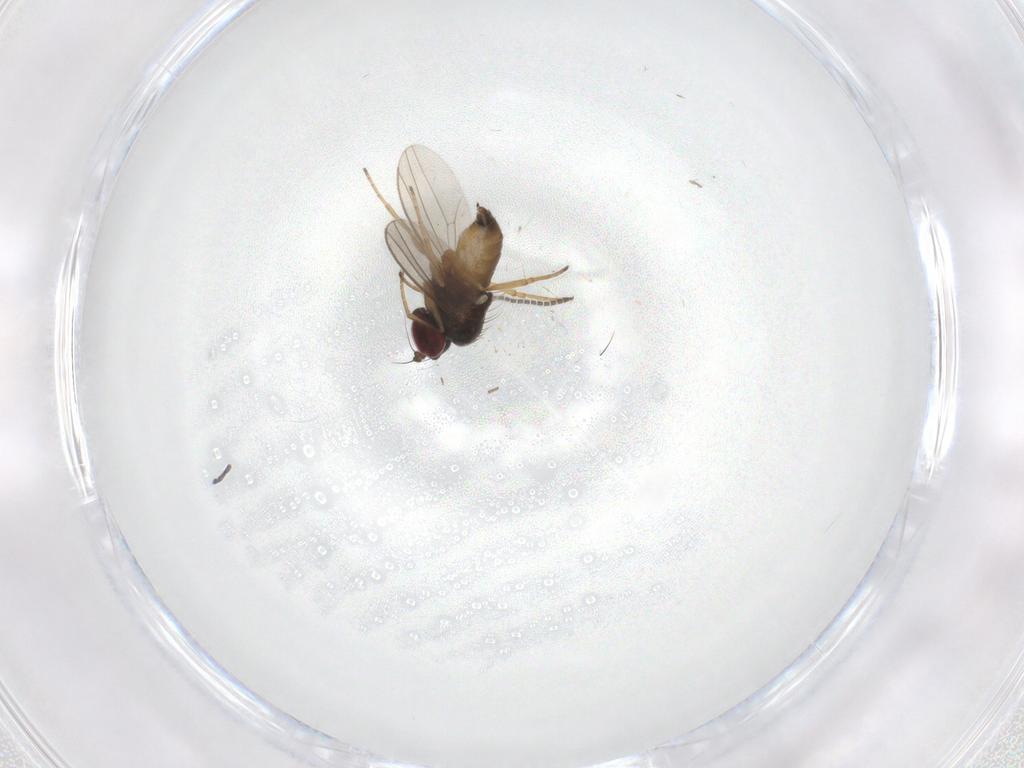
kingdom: Animalia
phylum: Arthropoda
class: Insecta
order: Diptera
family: Dolichopodidae
